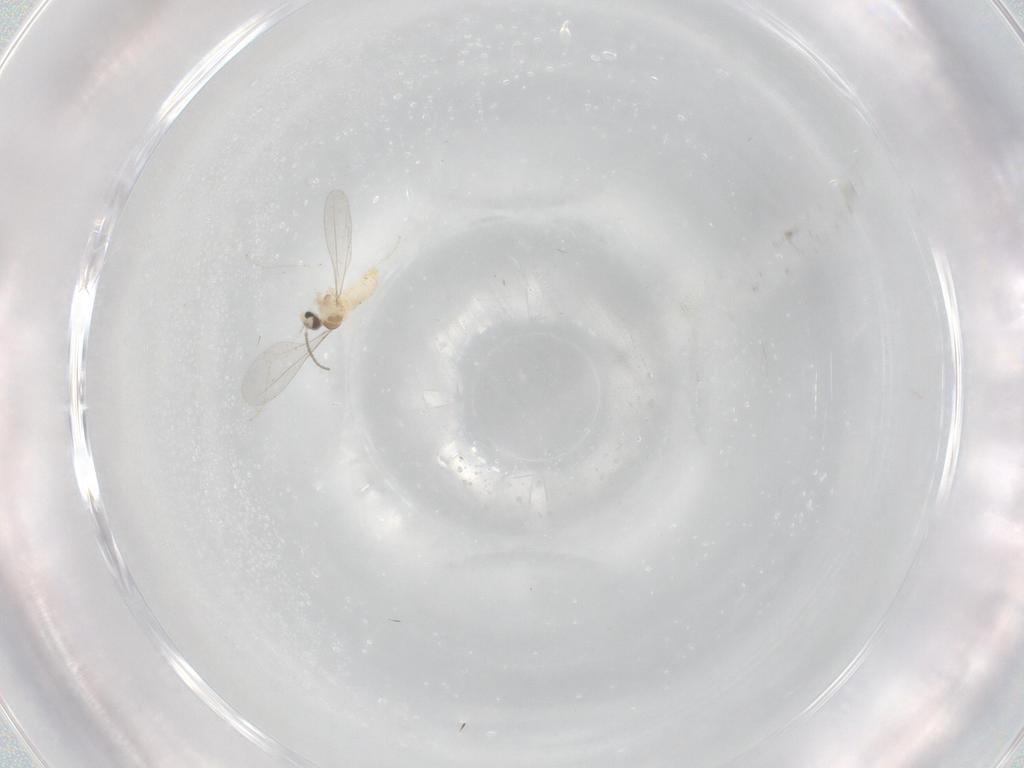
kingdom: Animalia
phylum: Arthropoda
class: Insecta
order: Diptera
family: Cecidomyiidae
